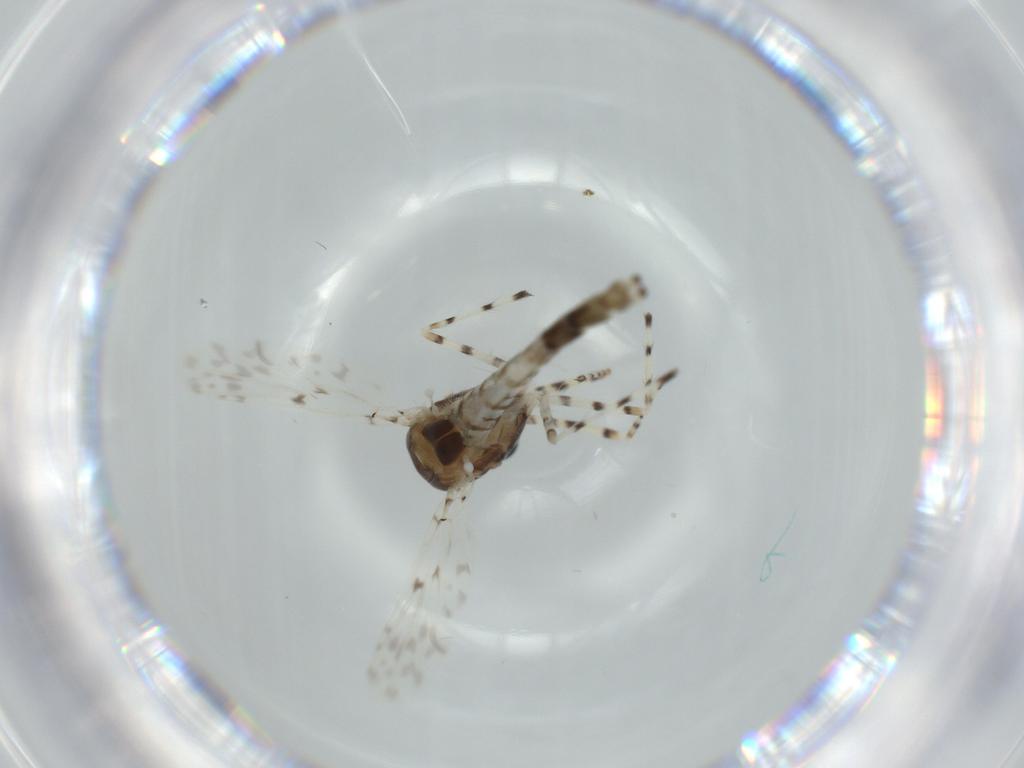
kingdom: Animalia
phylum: Arthropoda
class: Insecta
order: Diptera
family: Chironomidae
